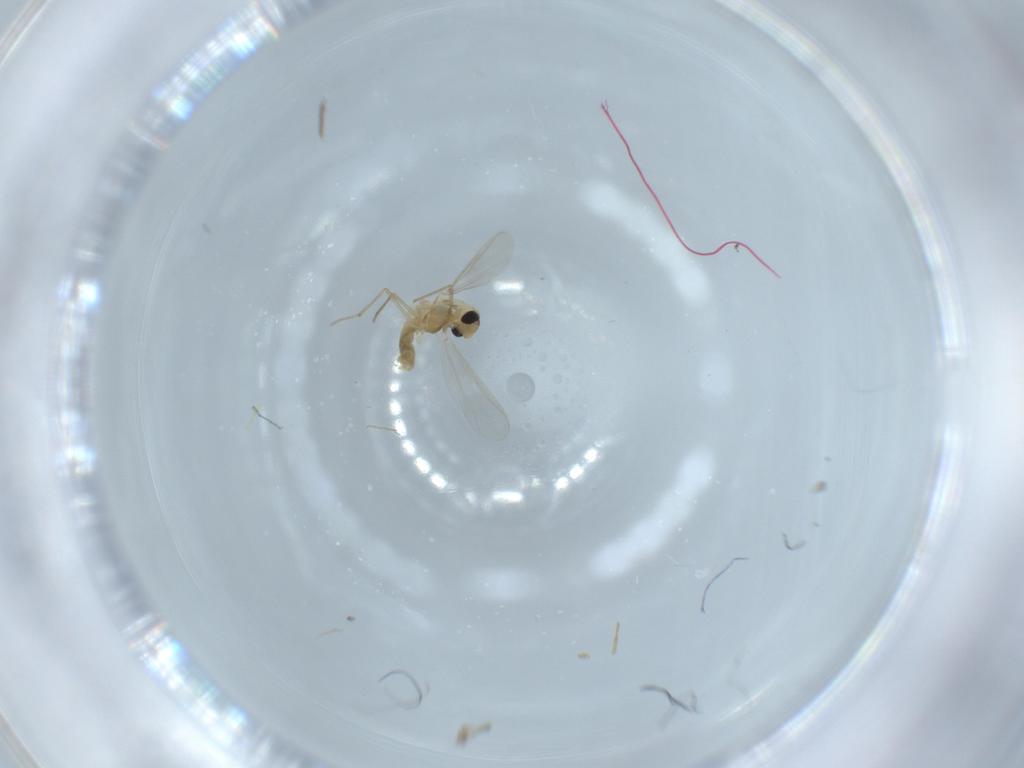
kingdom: Animalia
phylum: Arthropoda
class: Insecta
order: Diptera
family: Chironomidae
